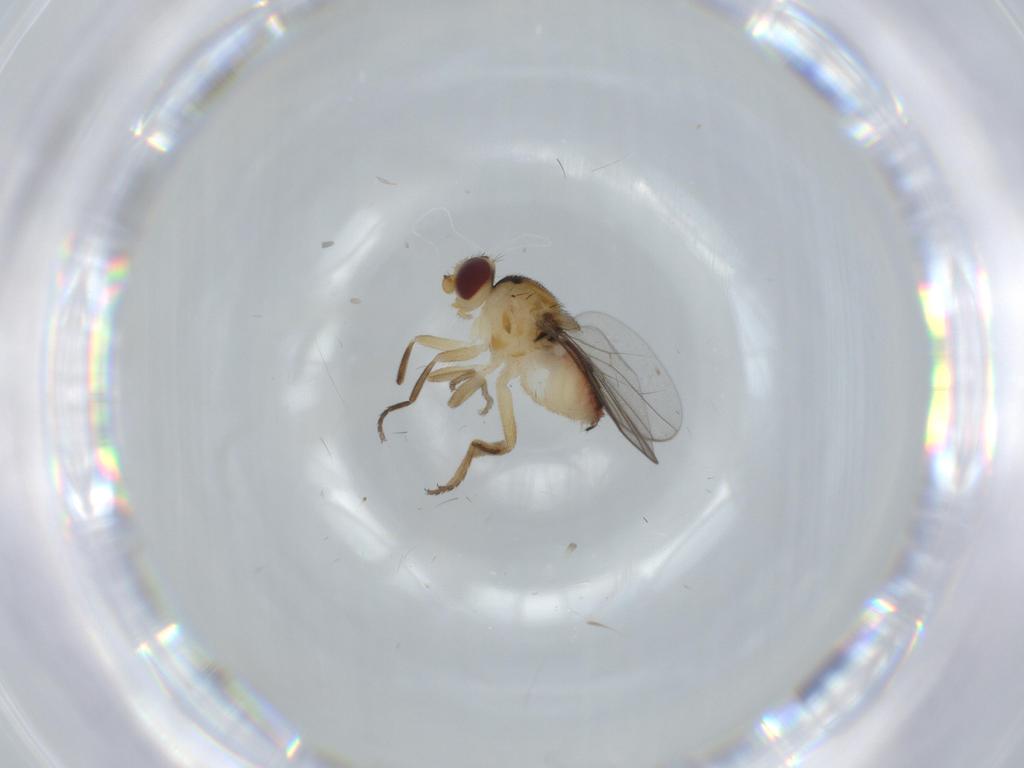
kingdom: Animalia
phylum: Arthropoda
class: Insecta
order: Diptera
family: Chloropidae
